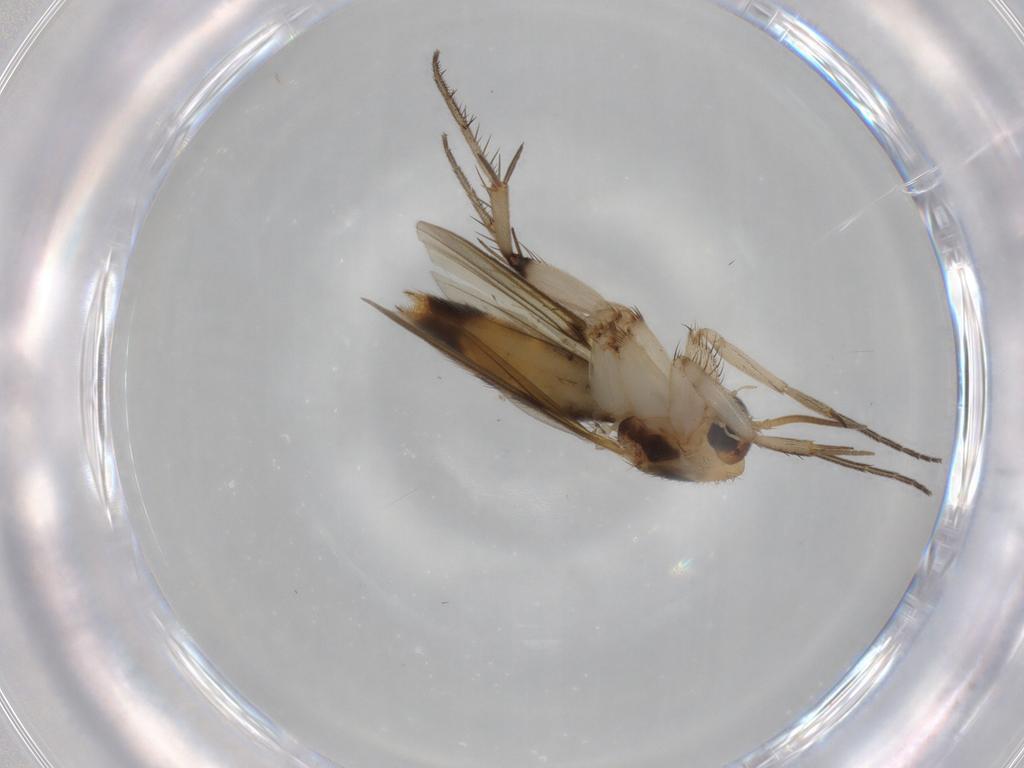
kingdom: Animalia
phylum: Arthropoda
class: Insecta
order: Diptera
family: Mycetophilidae
